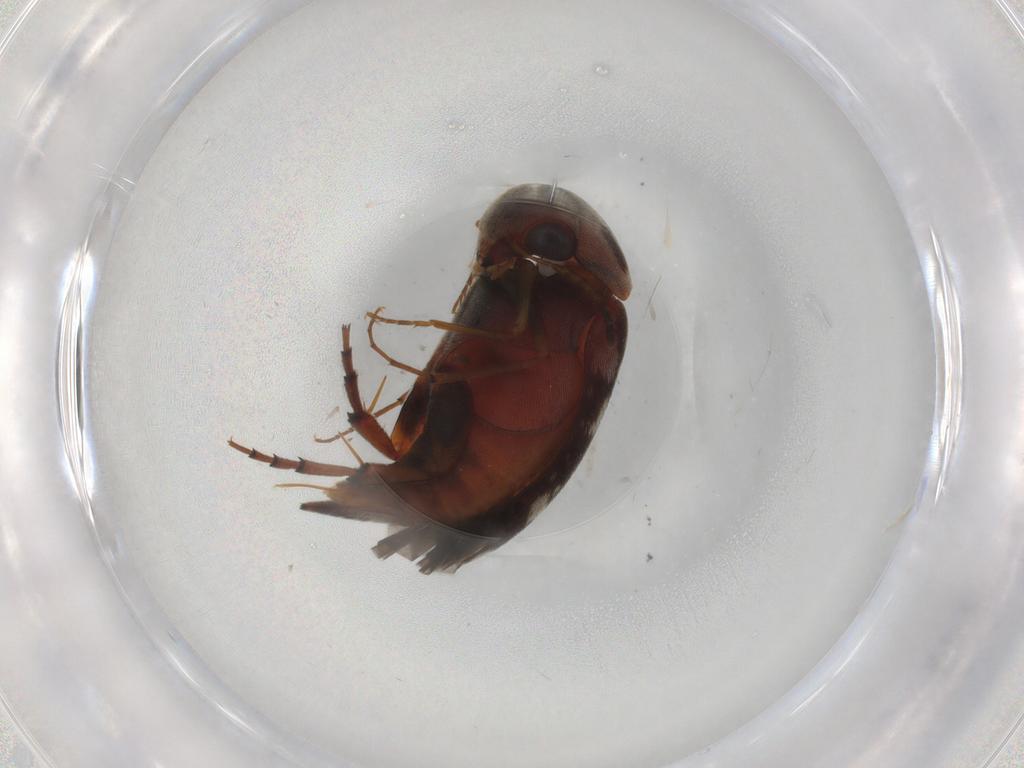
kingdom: Animalia
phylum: Arthropoda
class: Insecta
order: Coleoptera
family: Mordellidae
